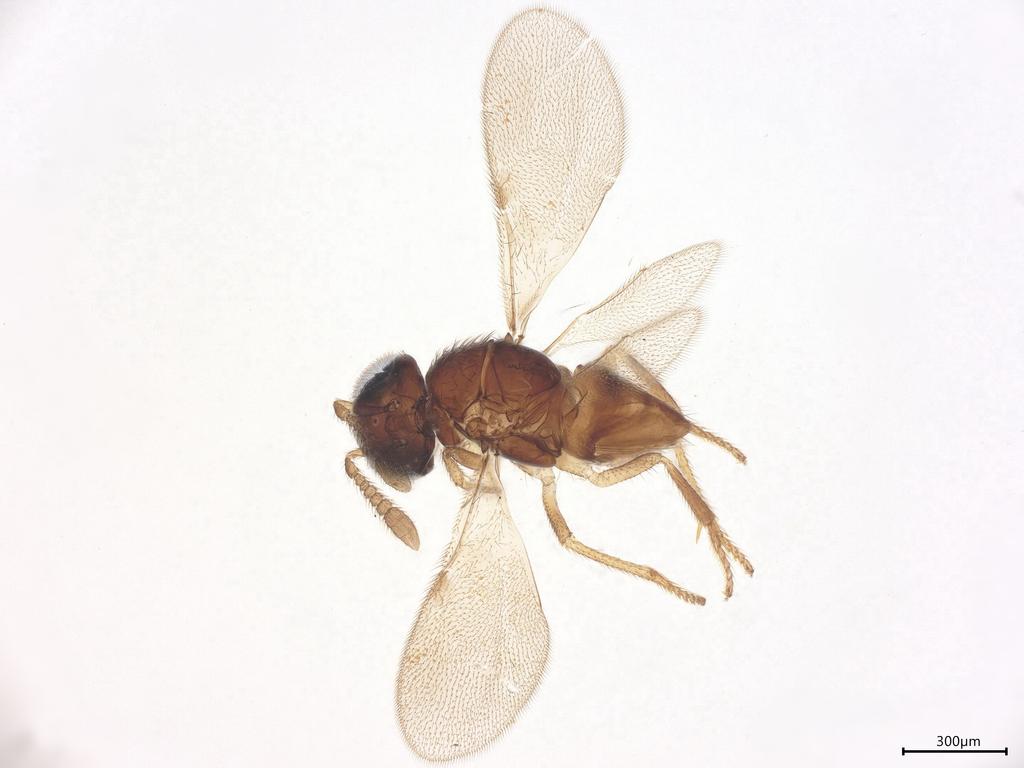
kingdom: Animalia
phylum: Arthropoda
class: Insecta
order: Hymenoptera
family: Encyrtidae
